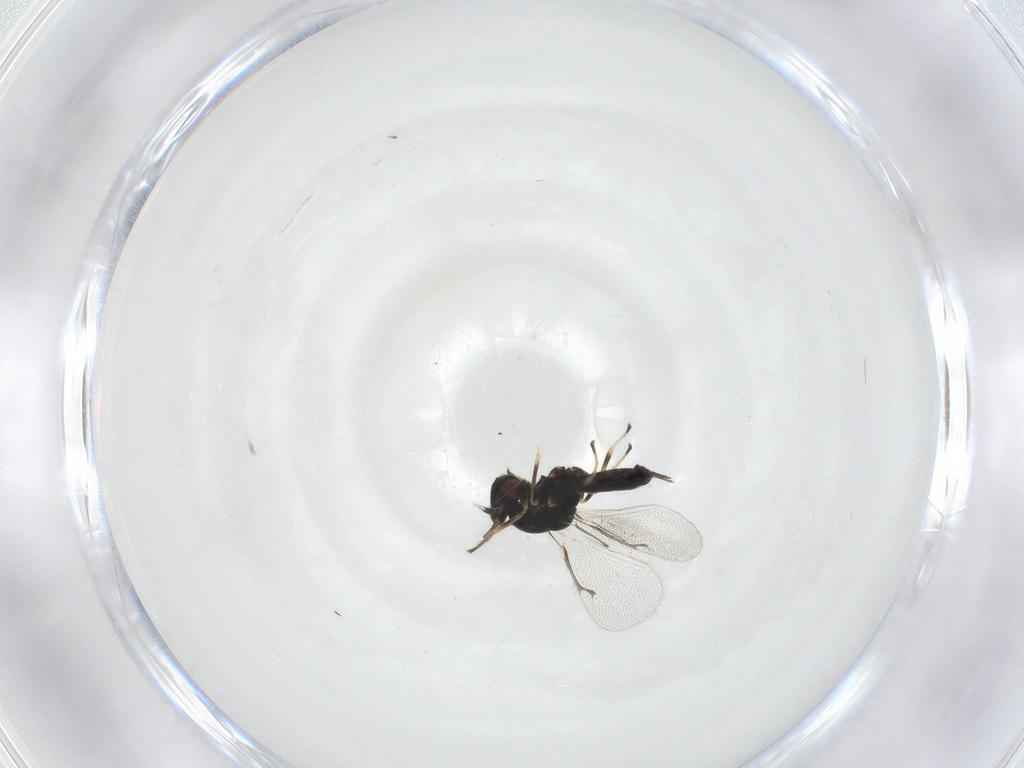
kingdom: Animalia
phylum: Arthropoda
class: Insecta
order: Hymenoptera
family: Eulophidae
